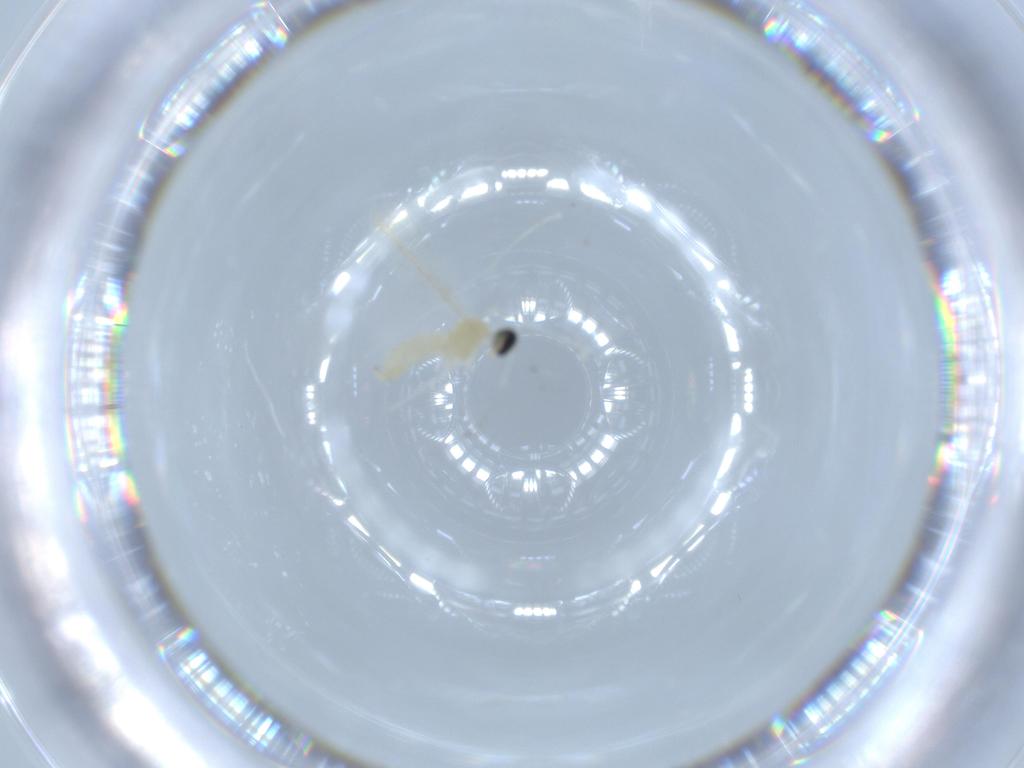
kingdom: Animalia
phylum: Arthropoda
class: Insecta
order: Diptera
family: Cecidomyiidae
